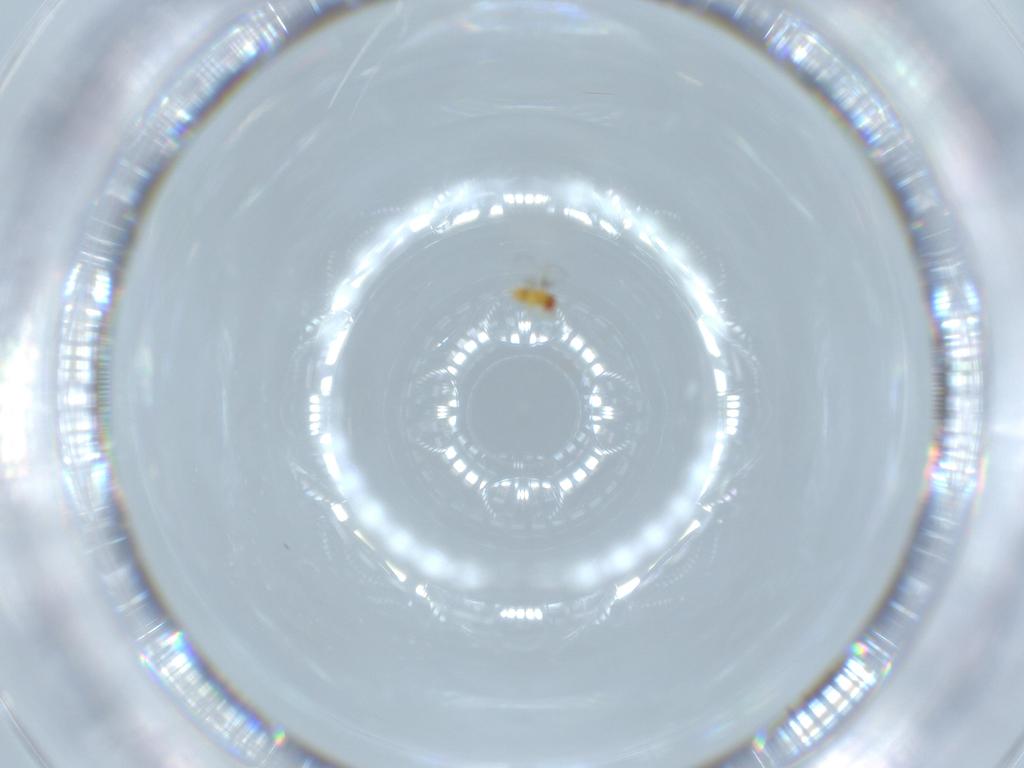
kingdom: Animalia
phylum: Arthropoda
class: Insecta
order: Hymenoptera
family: Trichogrammatidae
